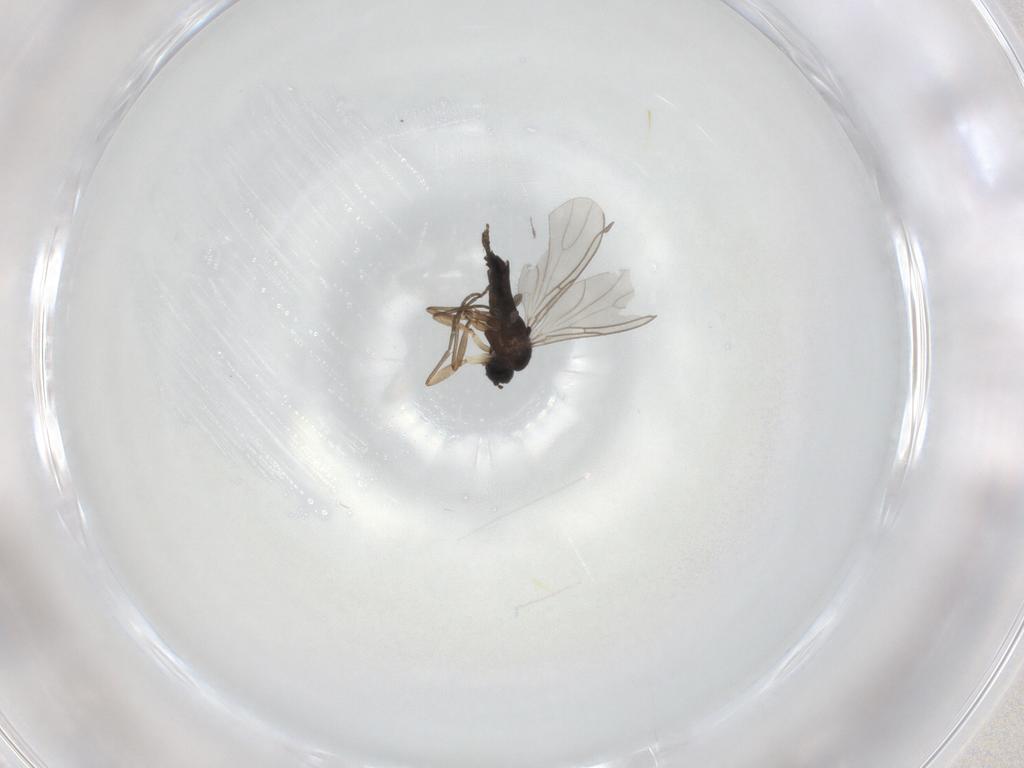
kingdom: Animalia
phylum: Arthropoda
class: Insecta
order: Diptera
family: Sciaridae
